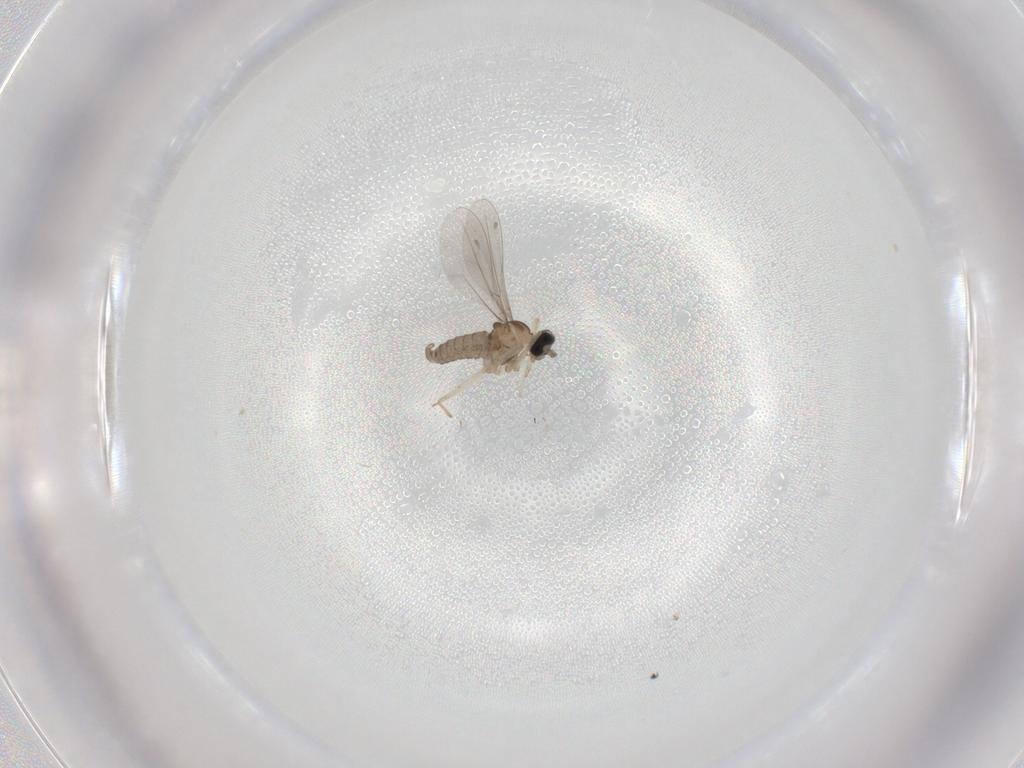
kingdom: Animalia
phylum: Arthropoda
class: Insecta
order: Diptera
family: Cecidomyiidae
